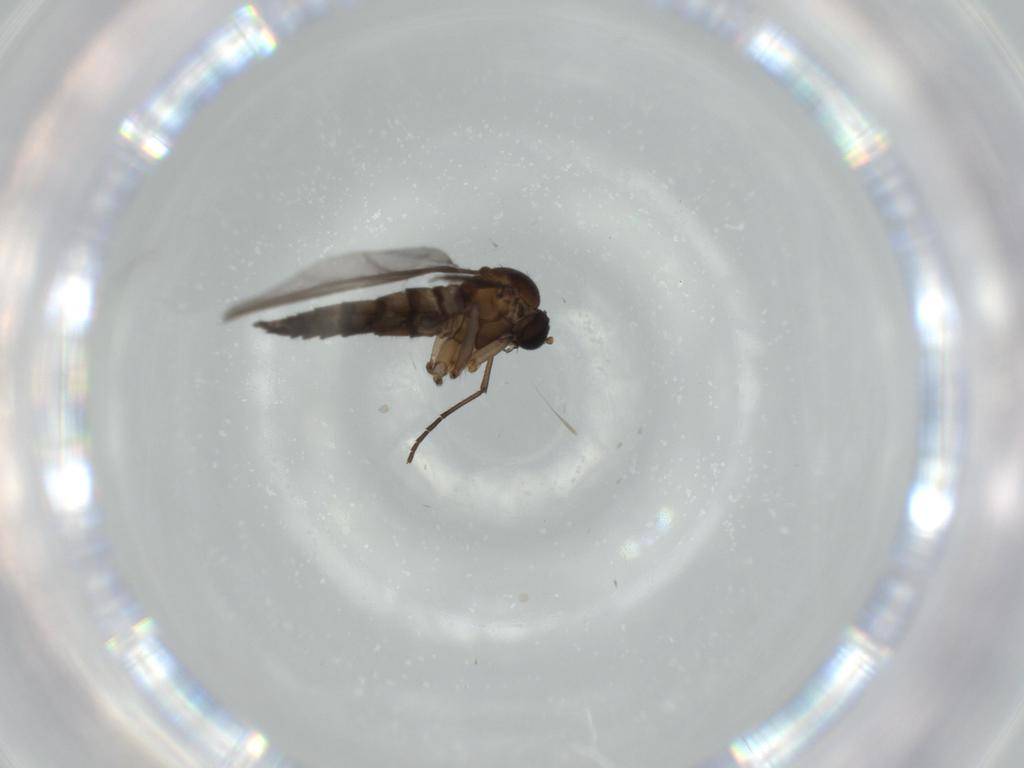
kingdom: Animalia
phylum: Arthropoda
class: Insecta
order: Diptera
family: Sciaridae
